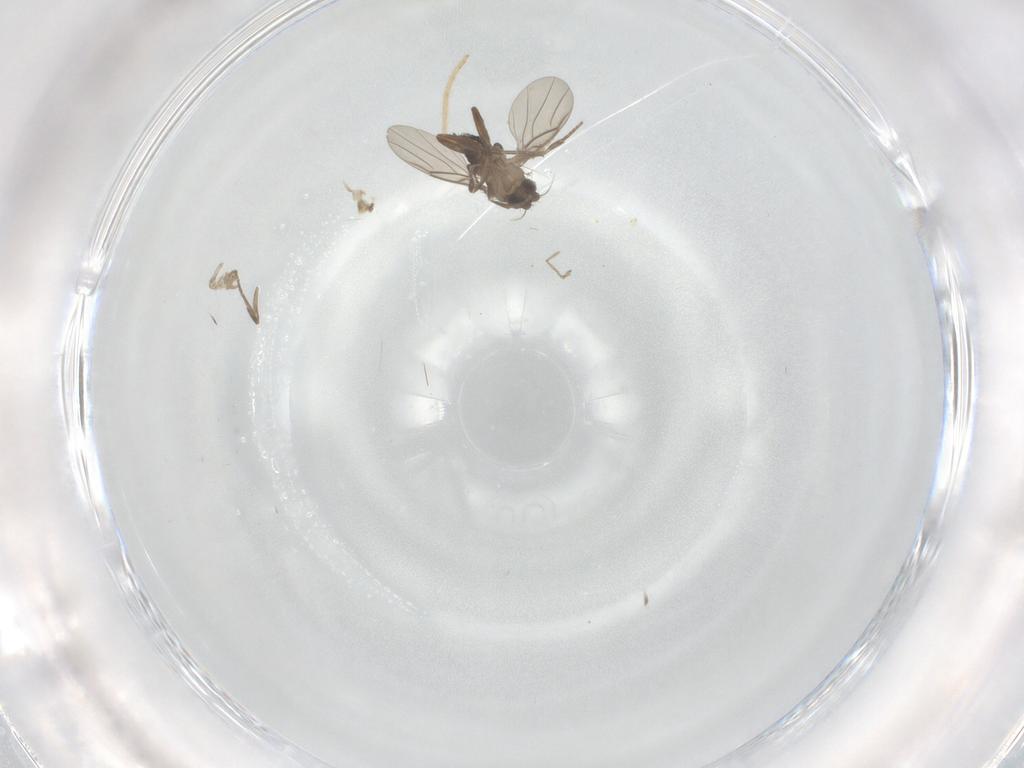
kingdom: Animalia
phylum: Arthropoda
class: Insecta
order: Diptera
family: Phoridae
